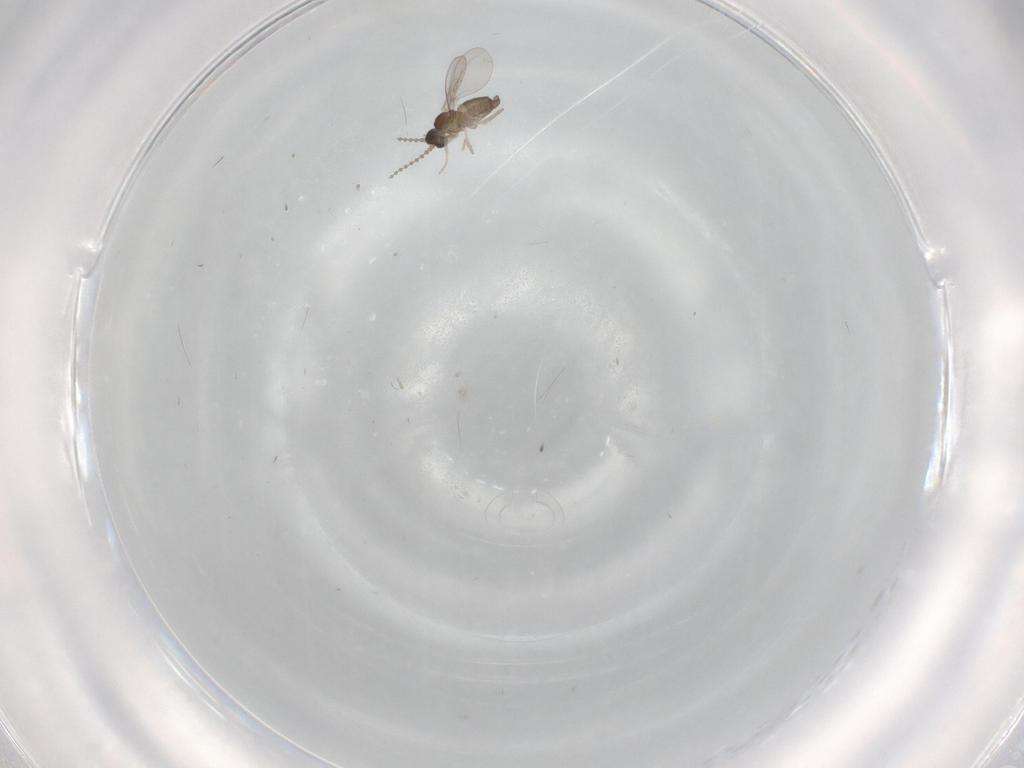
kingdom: Animalia
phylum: Arthropoda
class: Insecta
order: Diptera
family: Cecidomyiidae
